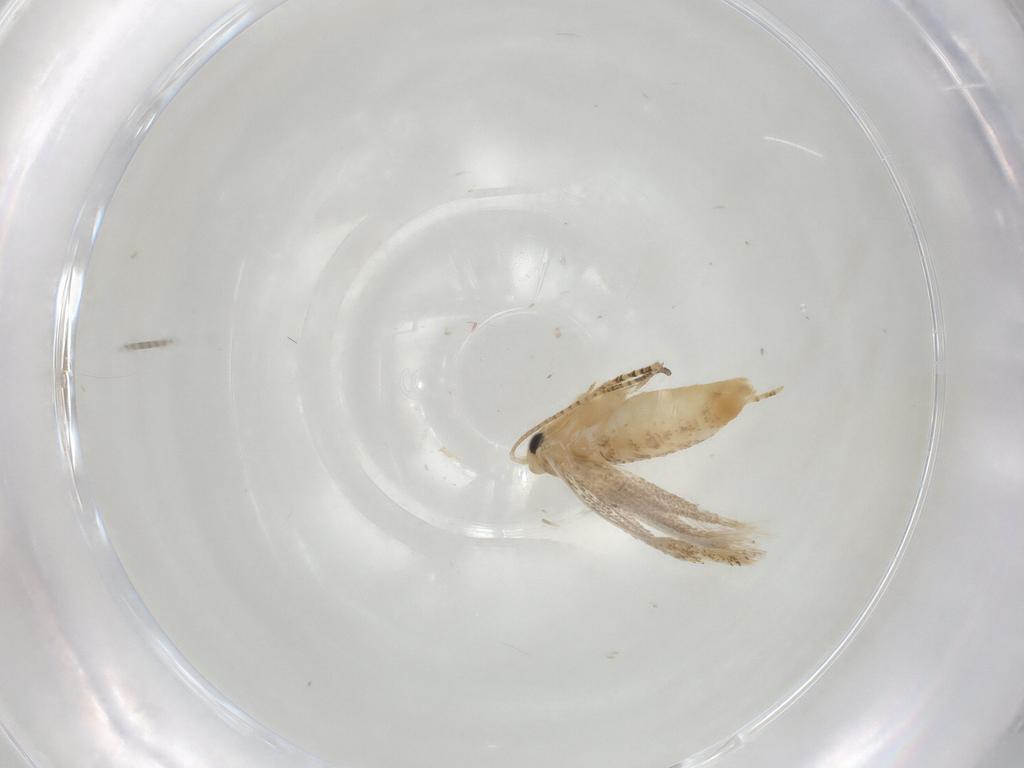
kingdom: Animalia
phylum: Arthropoda
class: Insecta
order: Lepidoptera
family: Bucculatricidae
